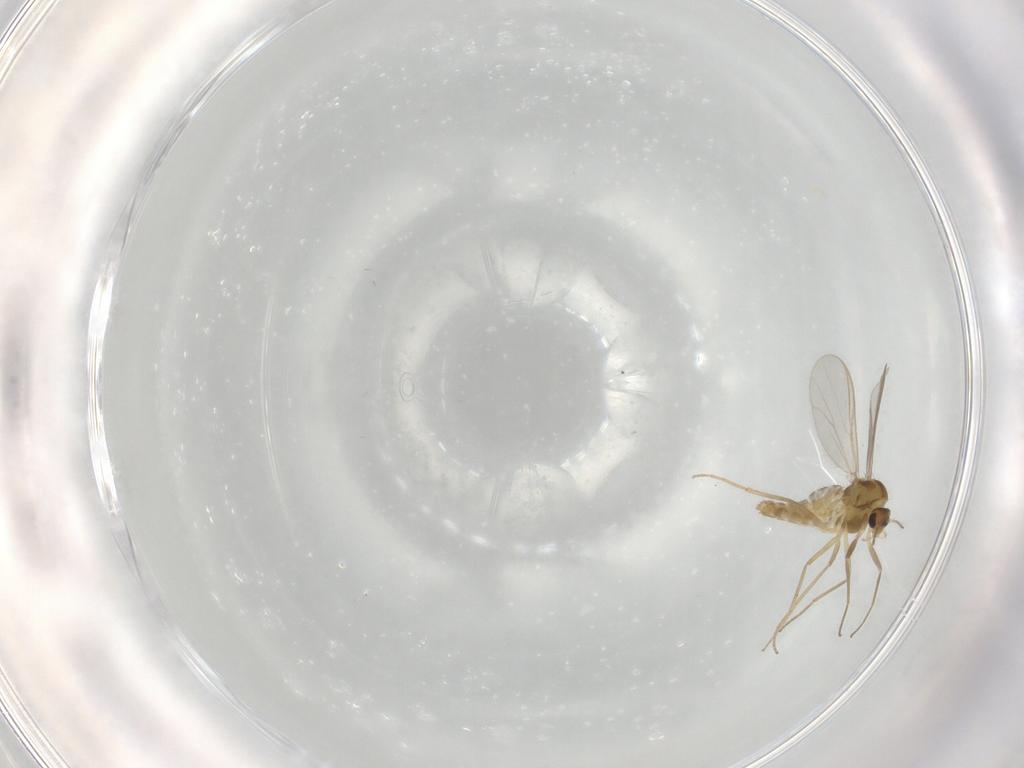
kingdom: Animalia
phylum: Arthropoda
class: Insecta
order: Diptera
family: Chironomidae
